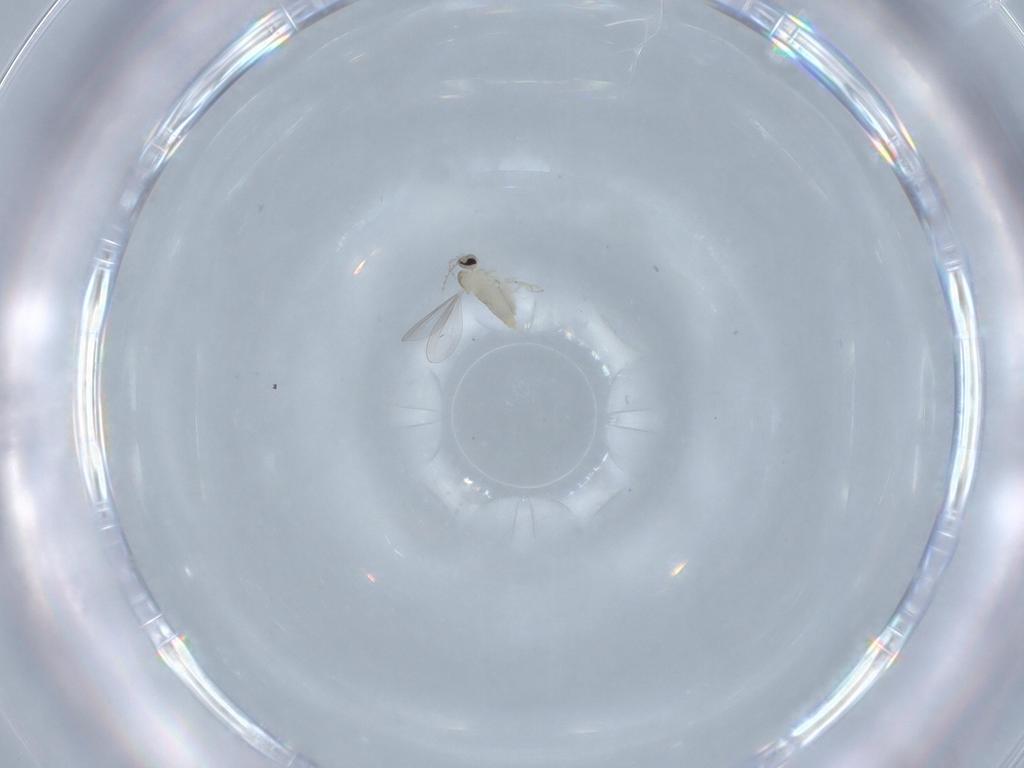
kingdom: Animalia
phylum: Arthropoda
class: Insecta
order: Diptera
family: Cecidomyiidae
